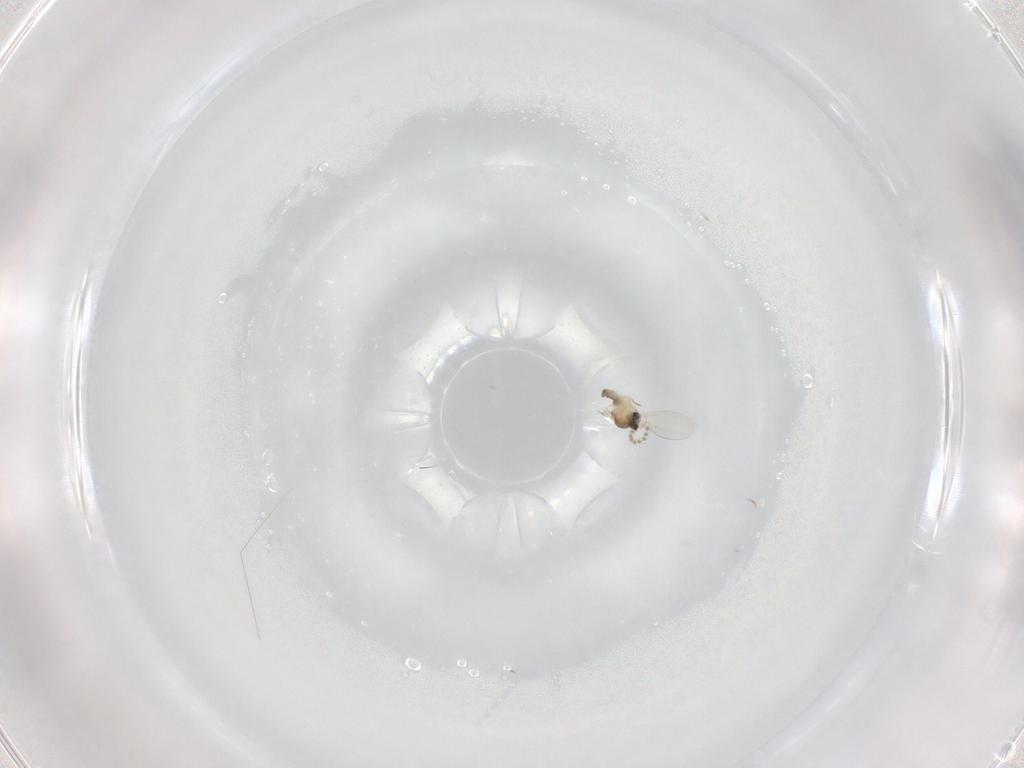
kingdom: Animalia
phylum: Arthropoda
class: Insecta
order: Diptera
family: Cecidomyiidae
